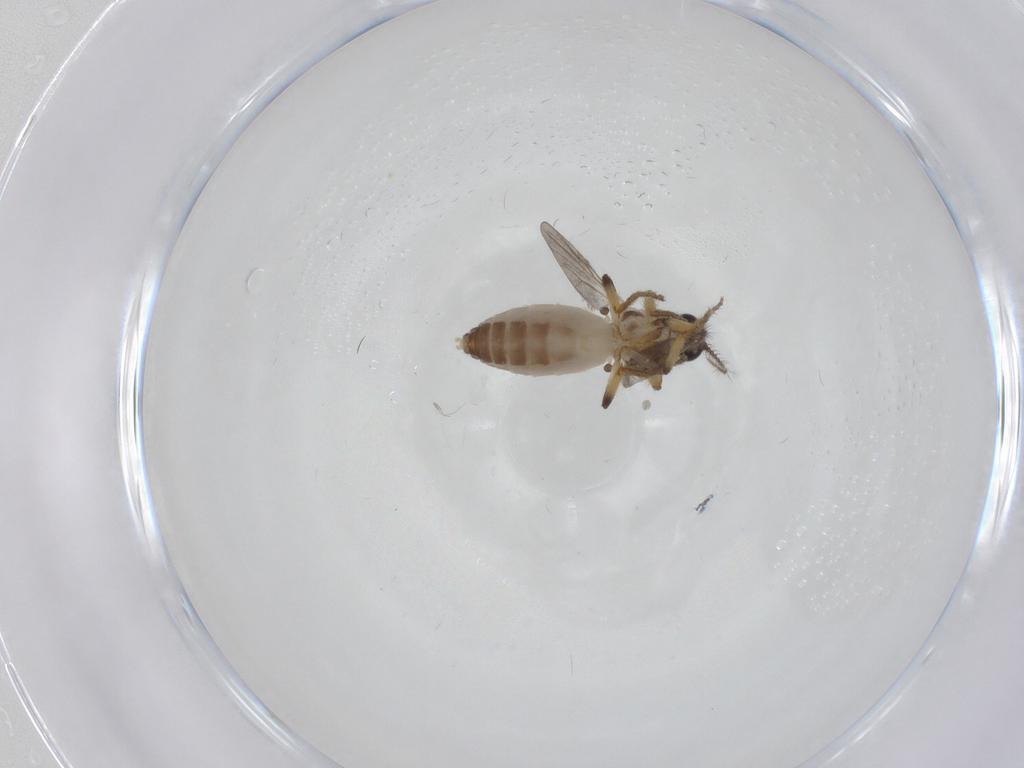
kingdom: Animalia
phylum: Arthropoda
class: Insecta
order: Diptera
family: Ceratopogonidae
